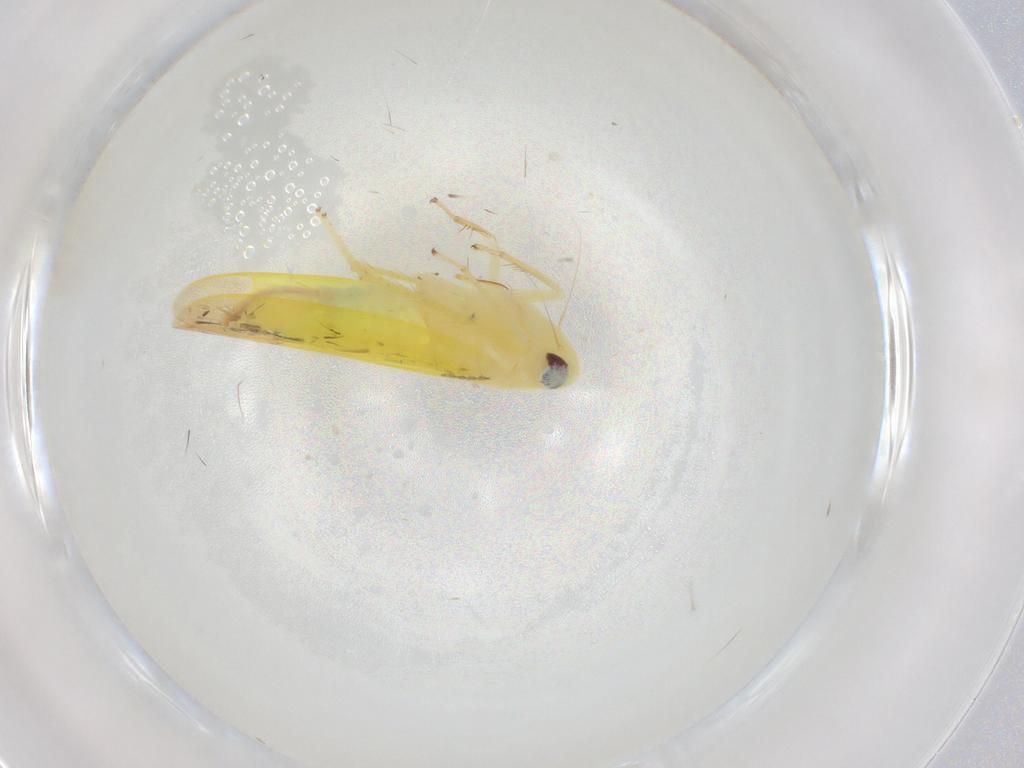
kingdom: Animalia
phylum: Arthropoda
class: Insecta
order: Hemiptera
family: Cicadellidae
